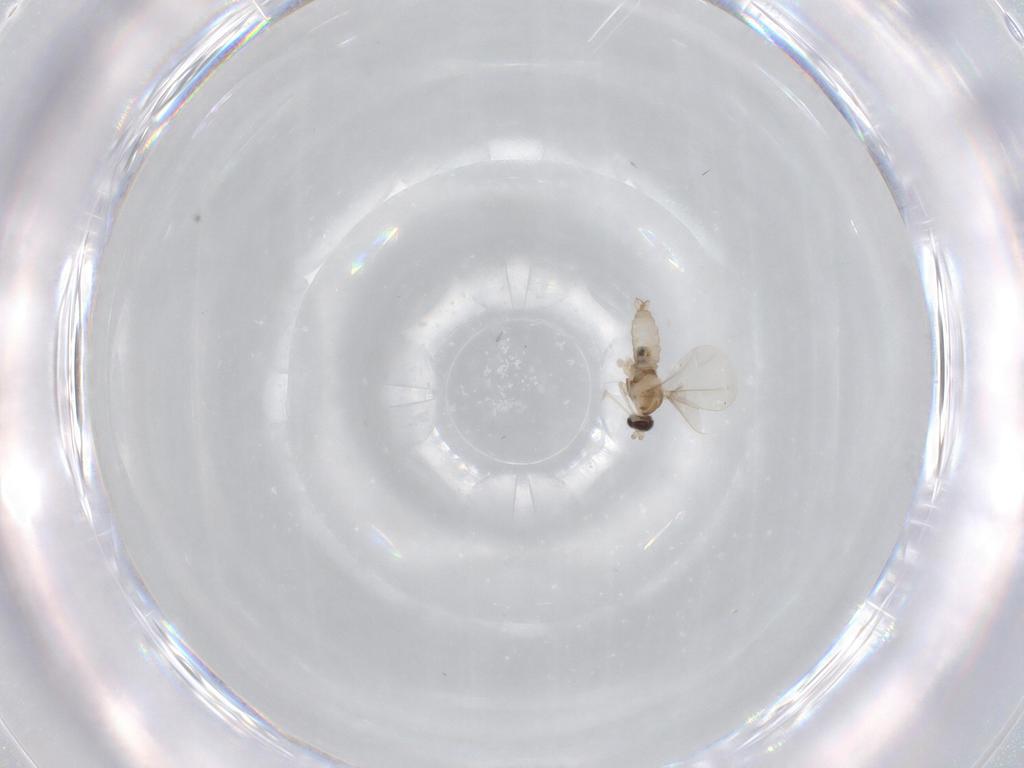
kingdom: Animalia
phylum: Arthropoda
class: Insecta
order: Diptera
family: Cecidomyiidae
